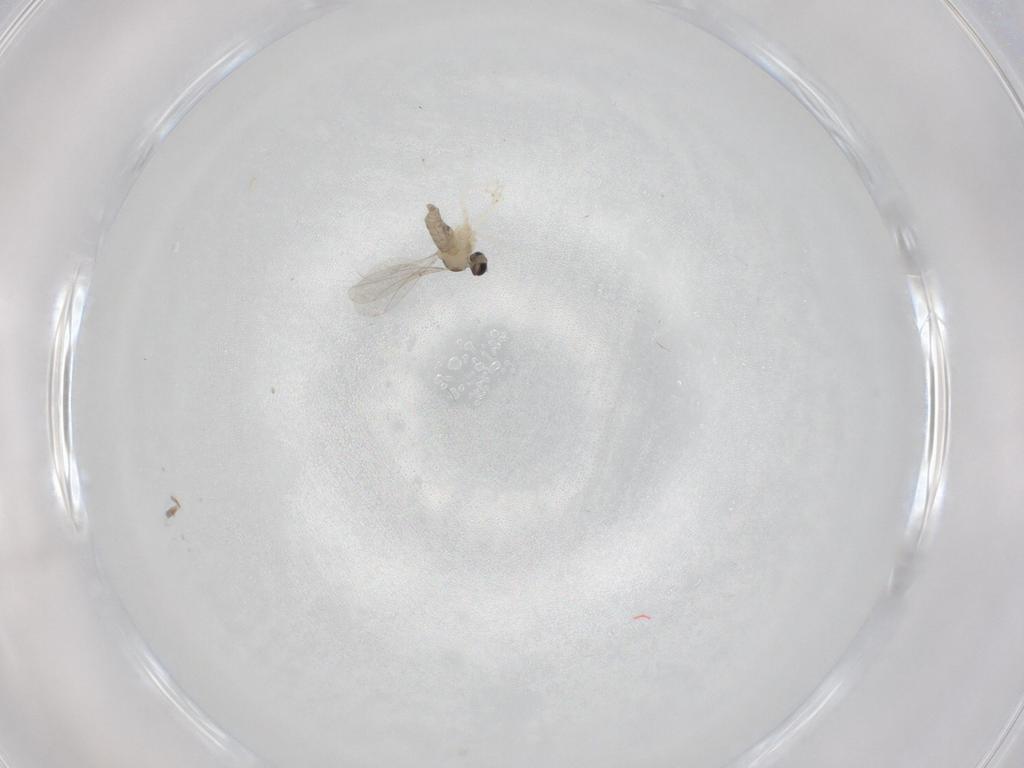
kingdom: Animalia
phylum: Arthropoda
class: Insecta
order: Diptera
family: Cecidomyiidae
